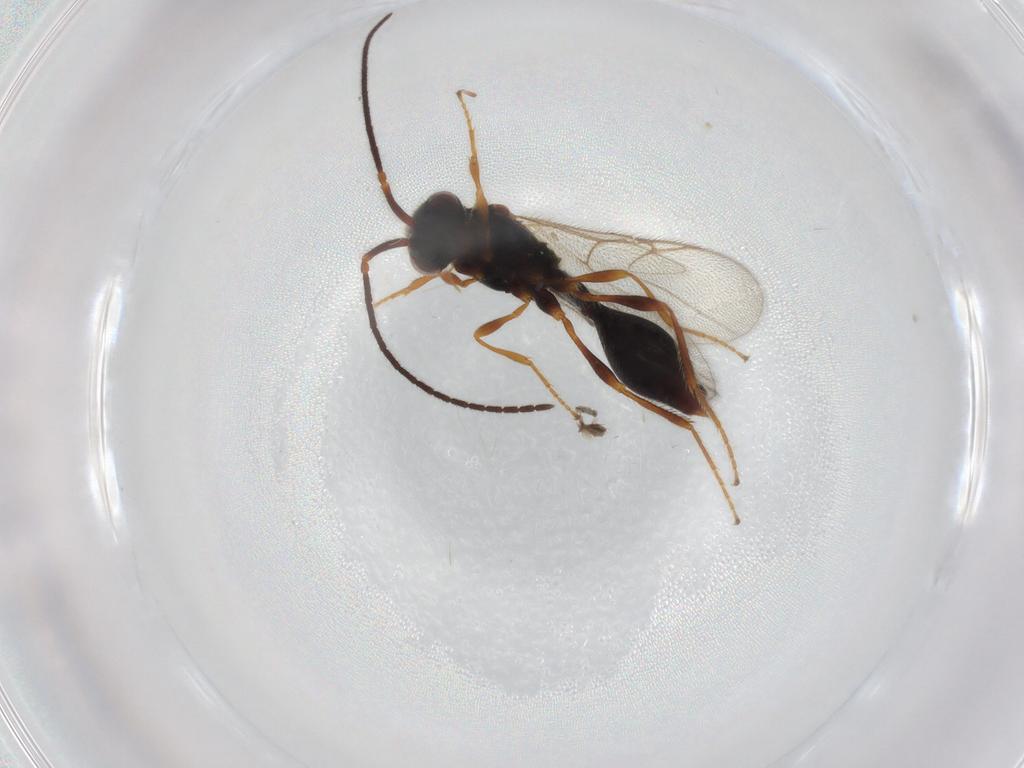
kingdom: Animalia
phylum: Arthropoda
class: Insecta
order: Hymenoptera
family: Diapriidae
